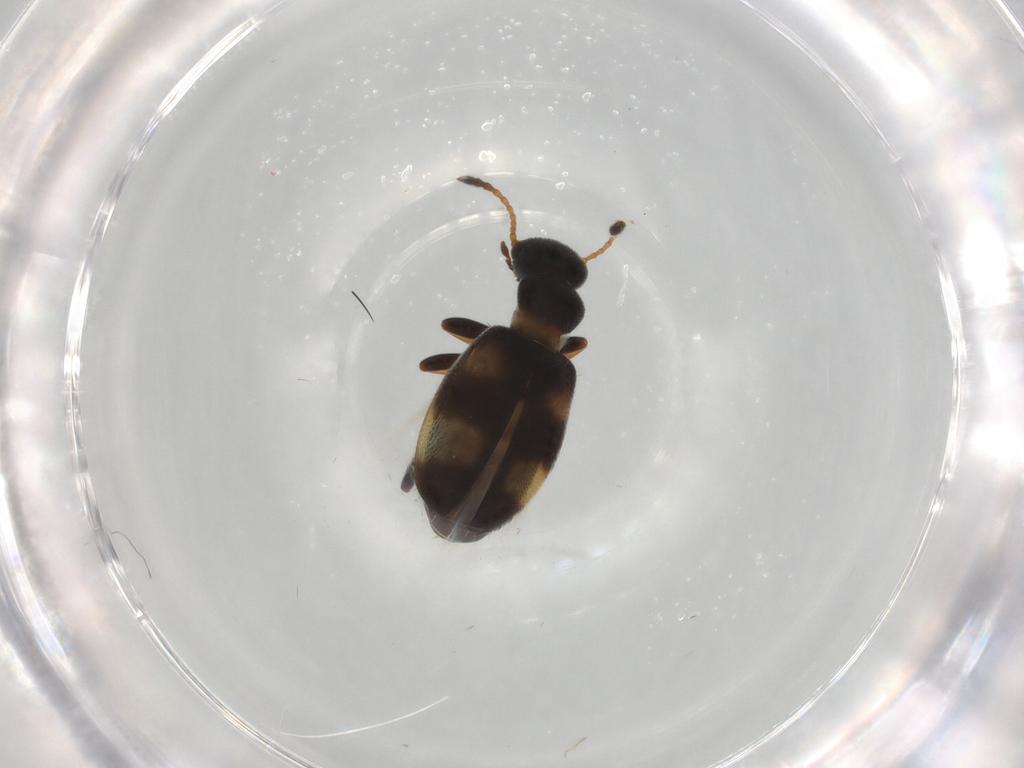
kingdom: Animalia
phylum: Arthropoda
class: Insecta
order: Coleoptera
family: Anthicidae
